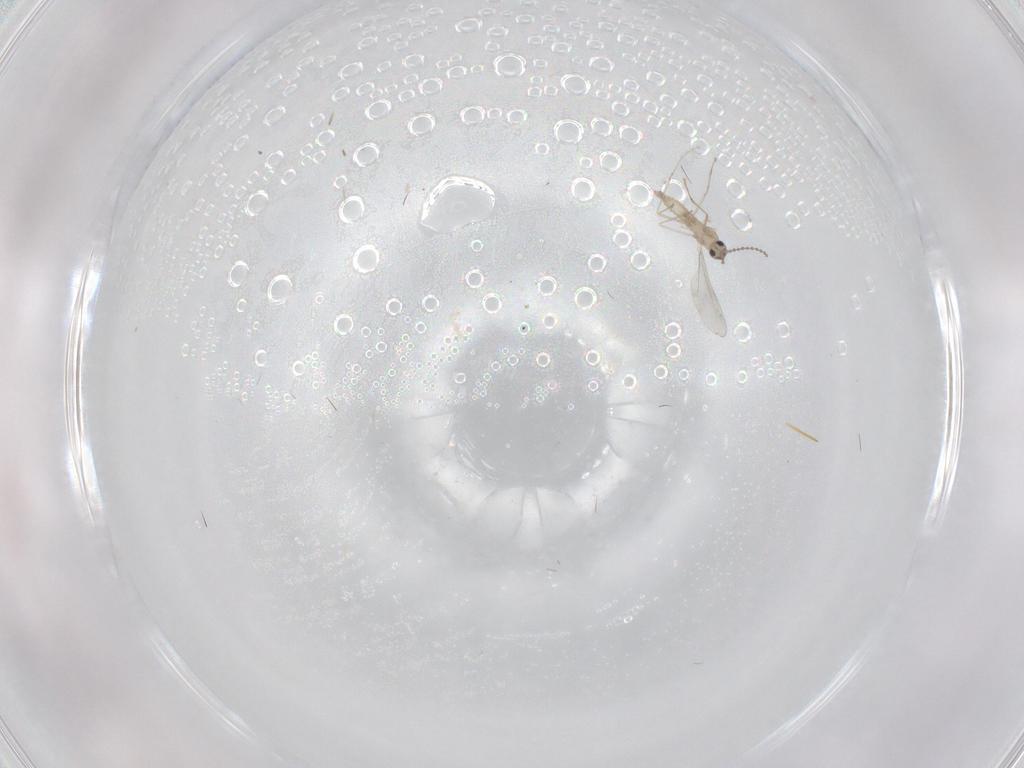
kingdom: Animalia
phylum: Arthropoda
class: Insecta
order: Diptera
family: Cecidomyiidae
